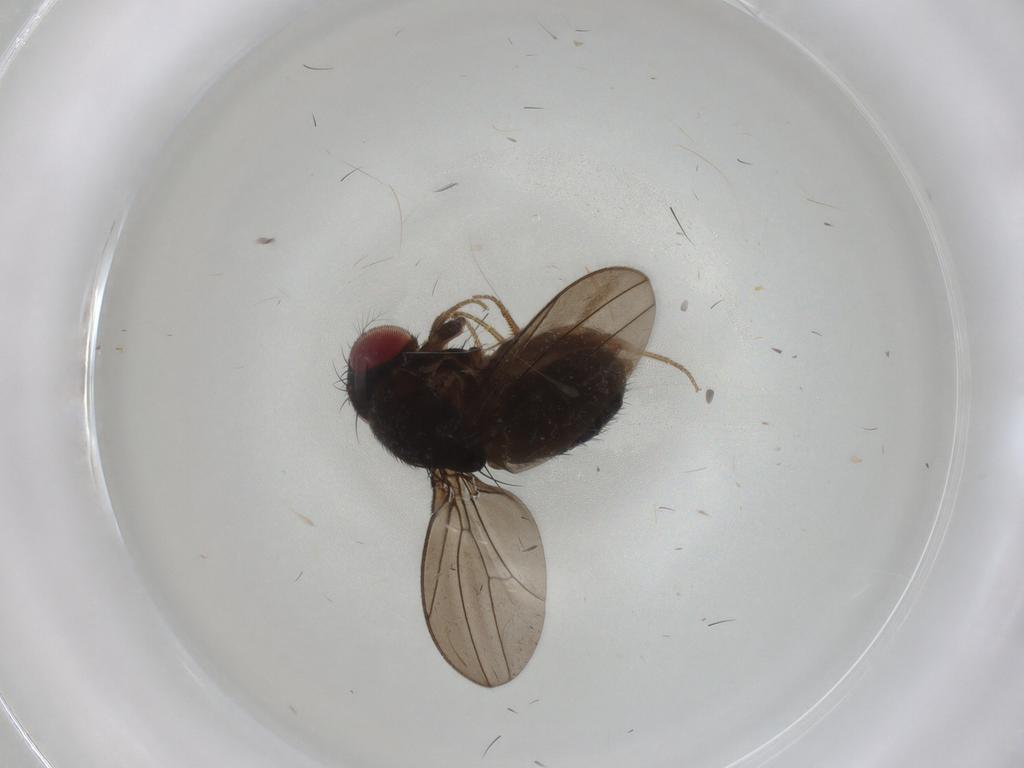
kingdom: Animalia
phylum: Arthropoda
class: Insecta
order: Diptera
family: Drosophilidae
